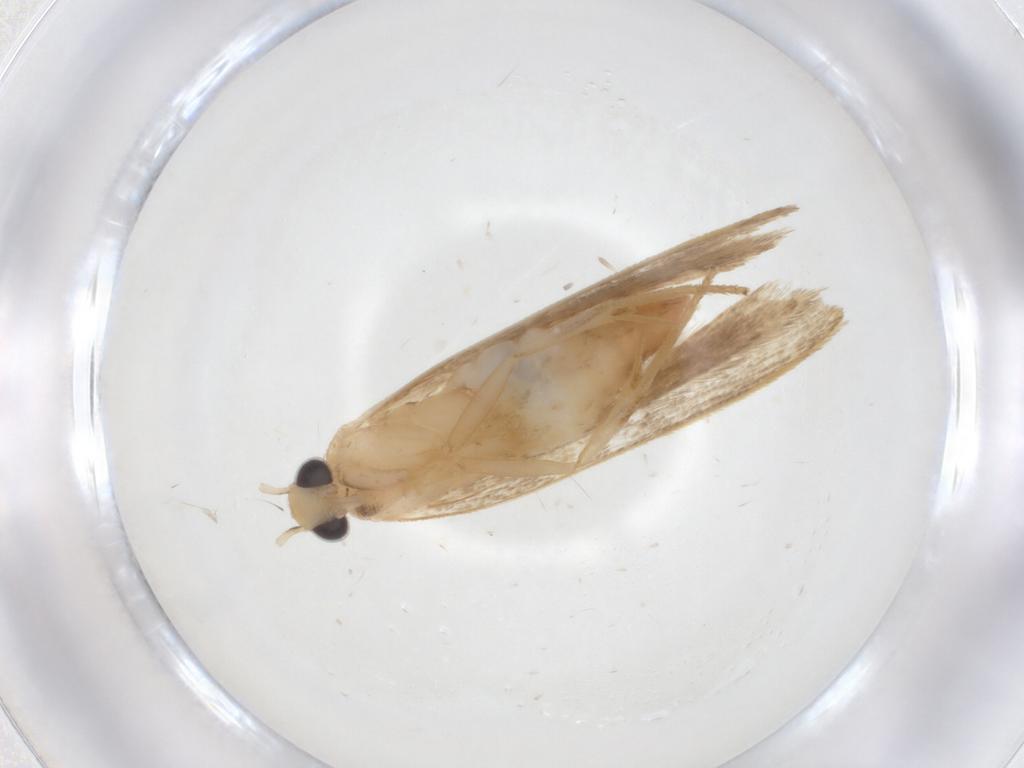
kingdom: Animalia
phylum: Arthropoda
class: Insecta
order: Lepidoptera
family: Gelechiidae
